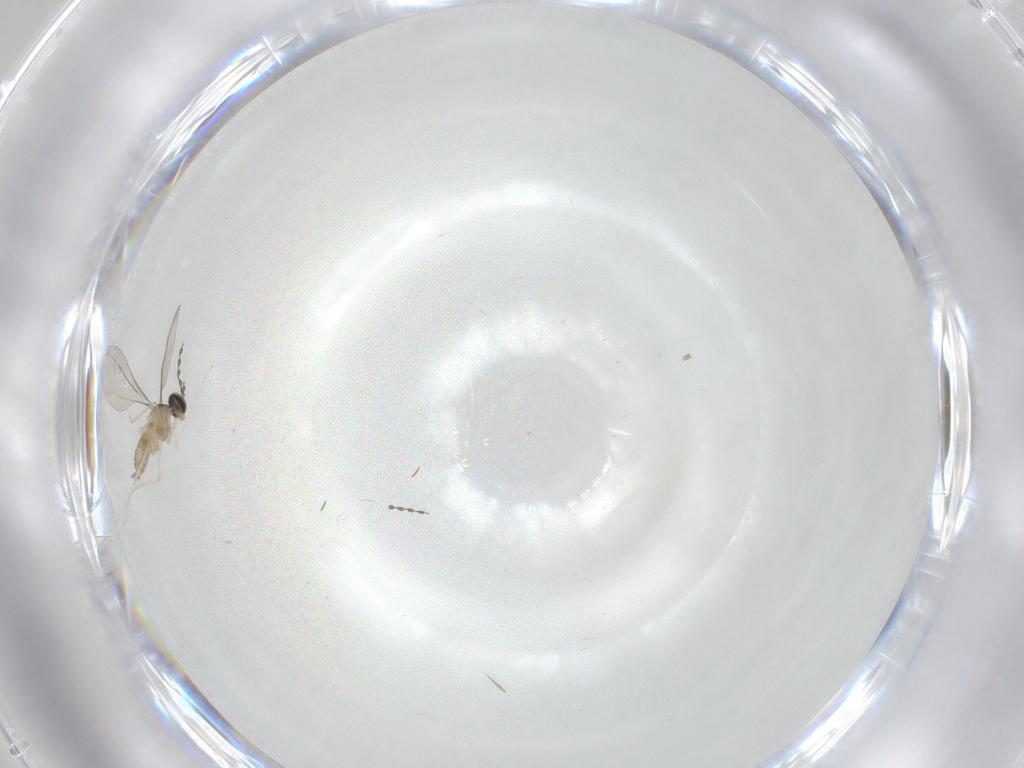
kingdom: Animalia
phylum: Arthropoda
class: Insecta
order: Diptera
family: Cecidomyiidae
